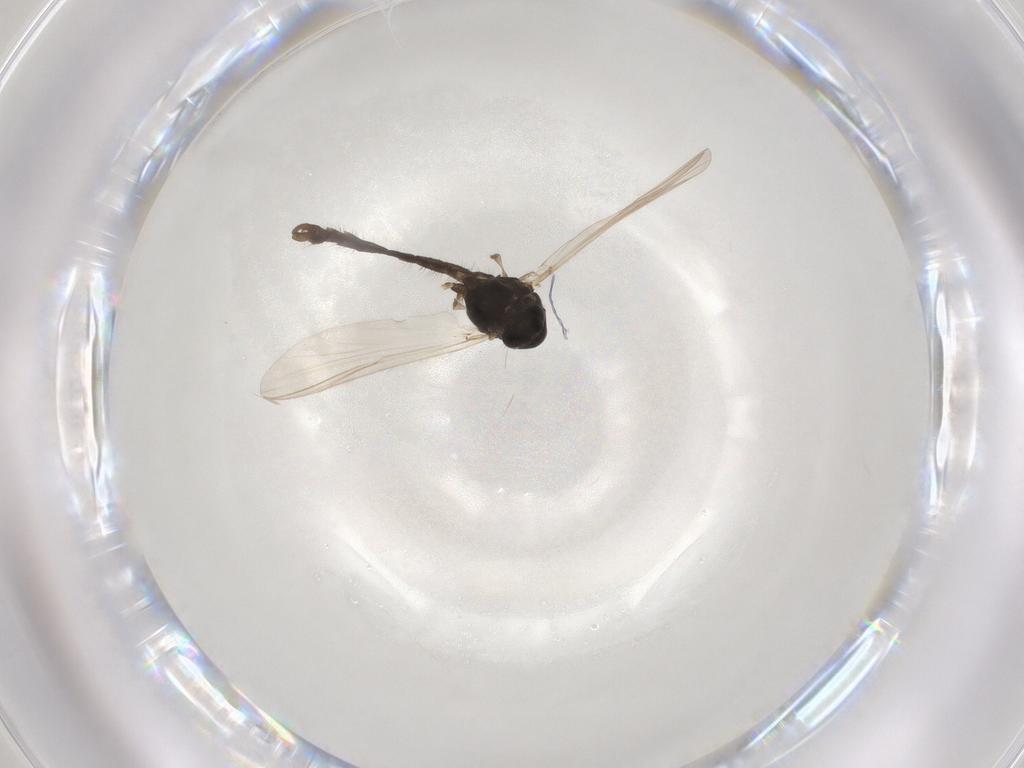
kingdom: Animalia
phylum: Arthropoda
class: Insecta
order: Diptera
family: Chironomidae
